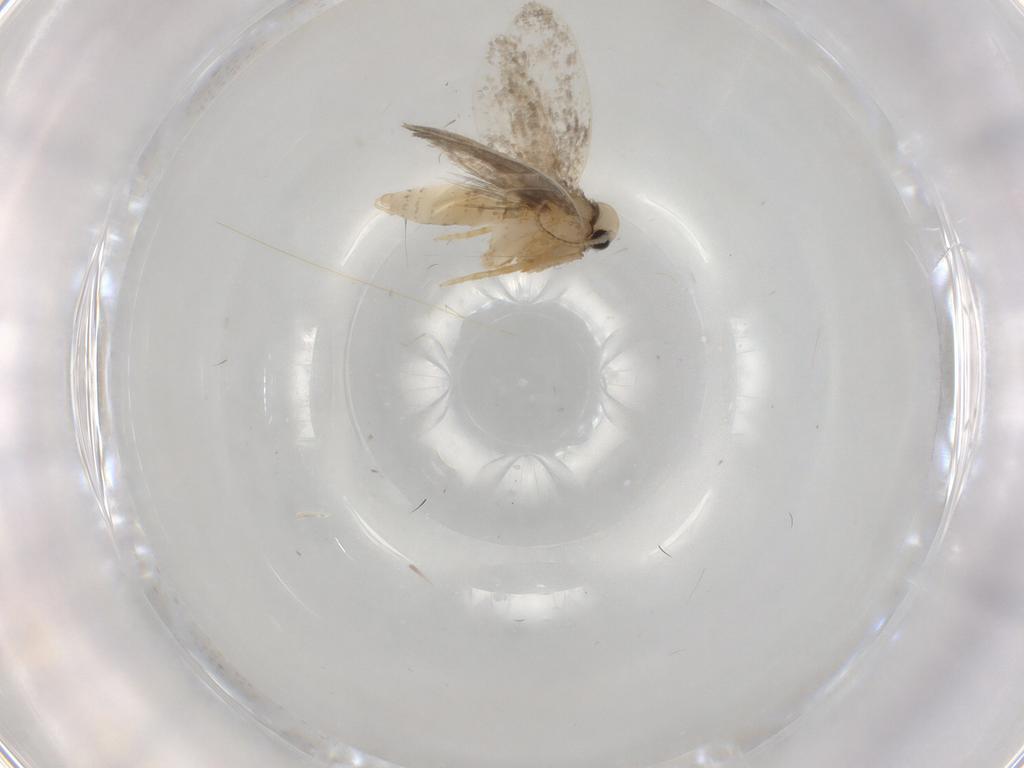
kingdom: Animalia
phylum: Arthropoda
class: Insecta
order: Lepidoptera
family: Psychidae
